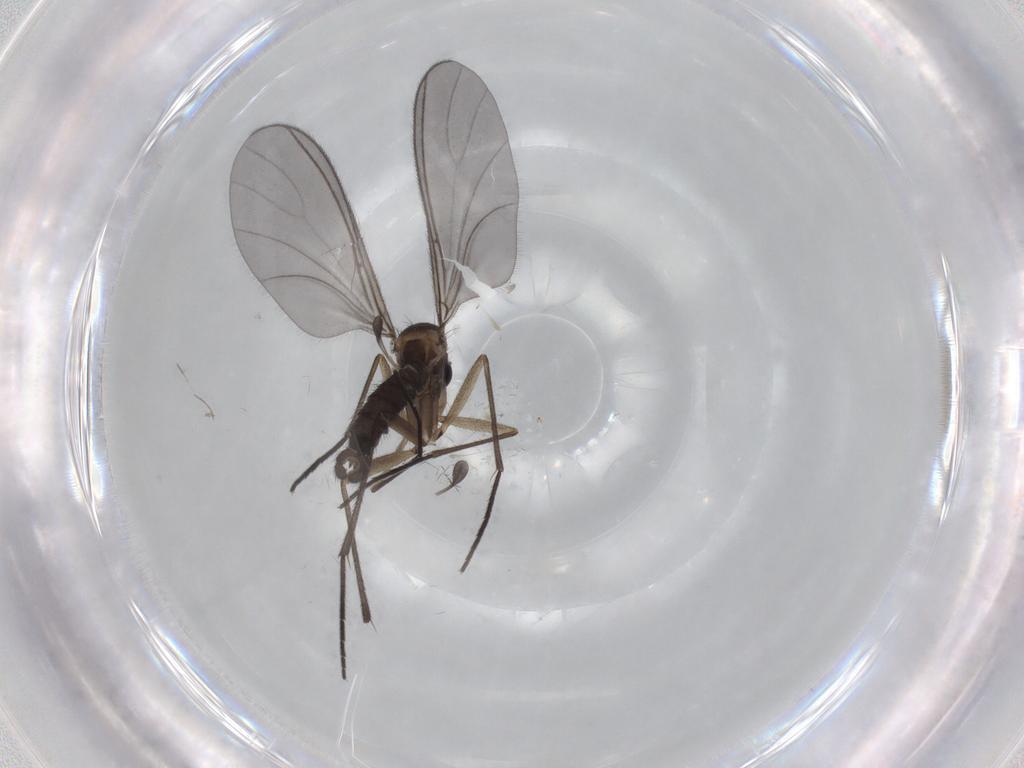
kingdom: Animalia
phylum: Arthropoda
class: Insecta
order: Diptera
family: Sciaridae
